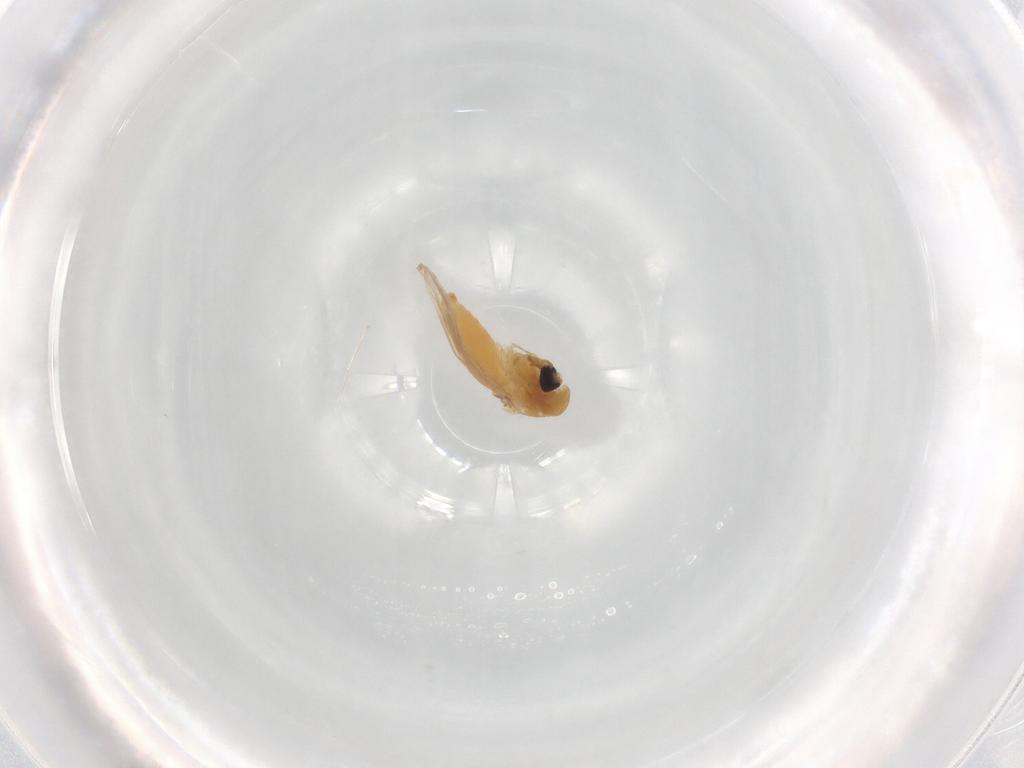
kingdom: Animalia
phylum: Arthropoda
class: Insecta
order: Diptera
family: Chironomidae
